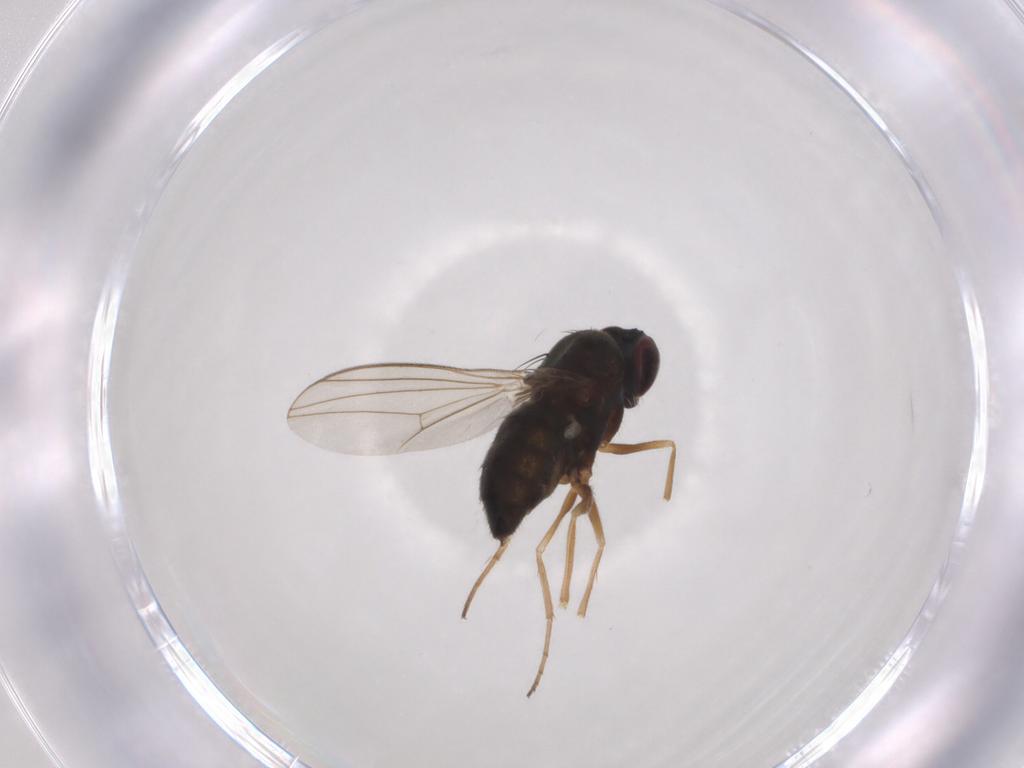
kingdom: Animalia
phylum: Arthropoda
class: Insecta
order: Diptera
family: Dolichopodidae
